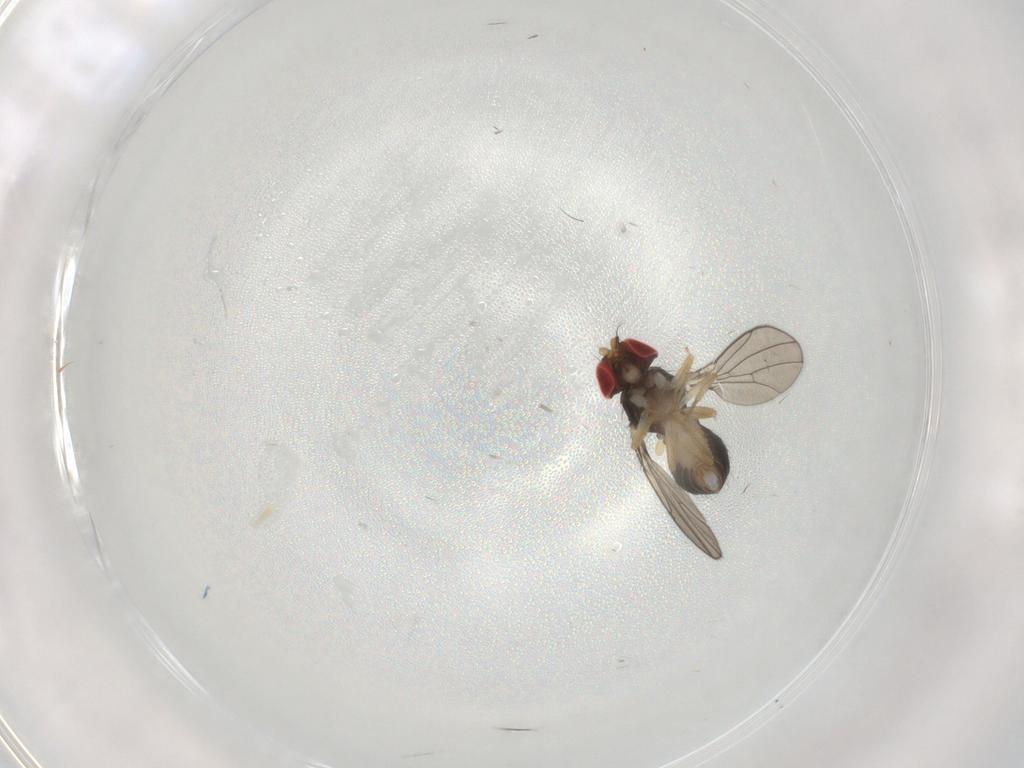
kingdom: Animalia
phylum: Arthropoda
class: Insecta
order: Diptera
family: Drosophilidae
